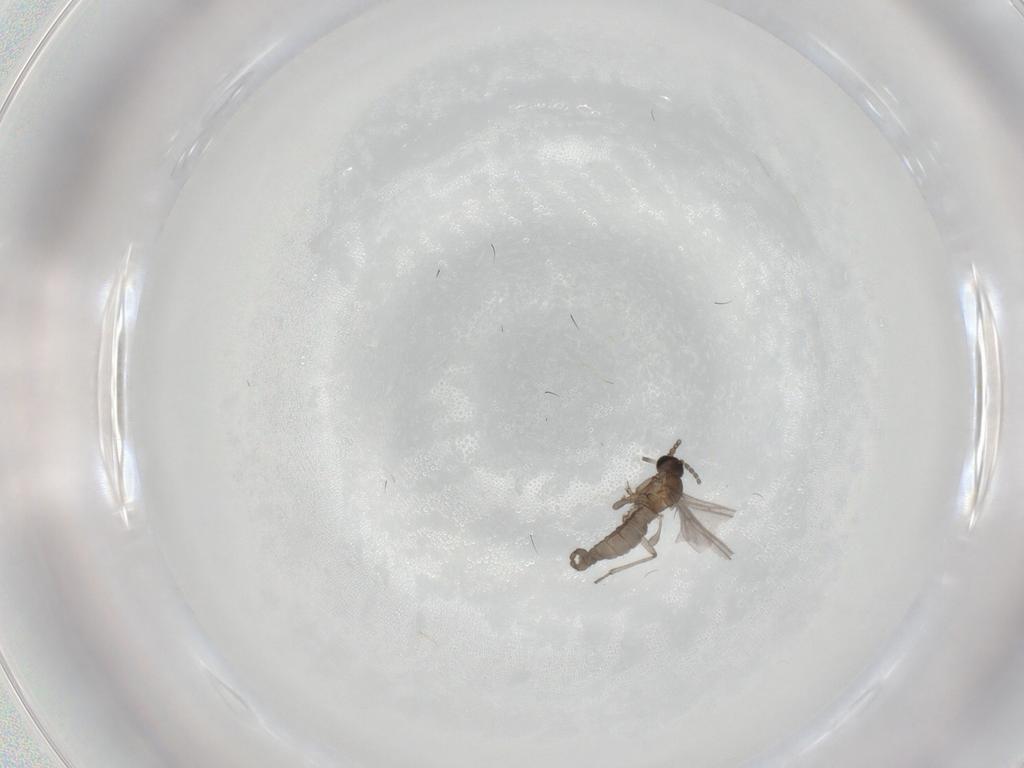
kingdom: Animalia
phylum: Arthropoda
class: Insecta
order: Diptera
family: Sciaridae
